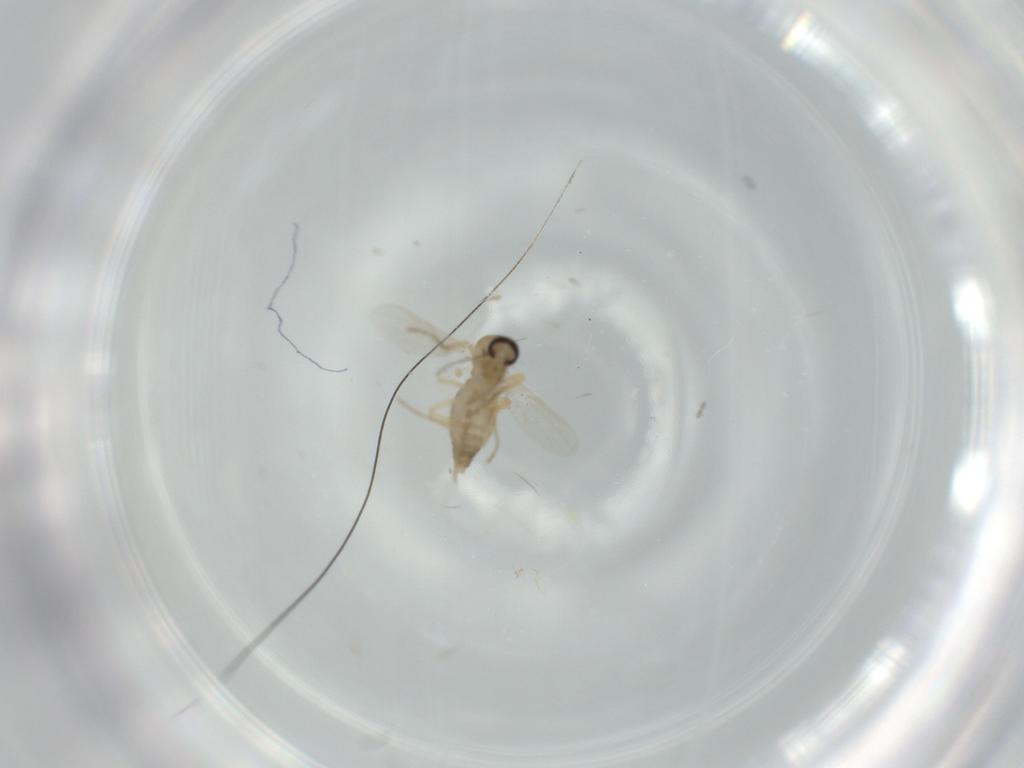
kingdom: Animalia
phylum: Arthropoda
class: Insecta
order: Diptera
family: Ceratopogonidae
